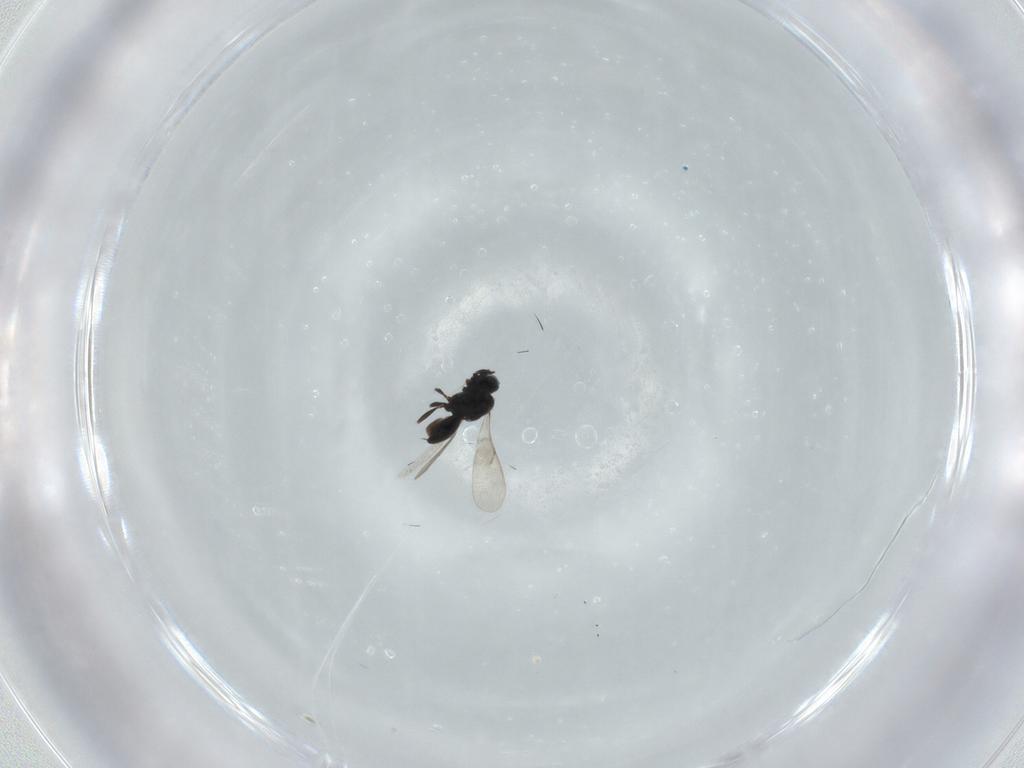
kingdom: Animalia
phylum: Arthropoda
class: Insecta
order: Hymenoptera
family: Scelionidae
